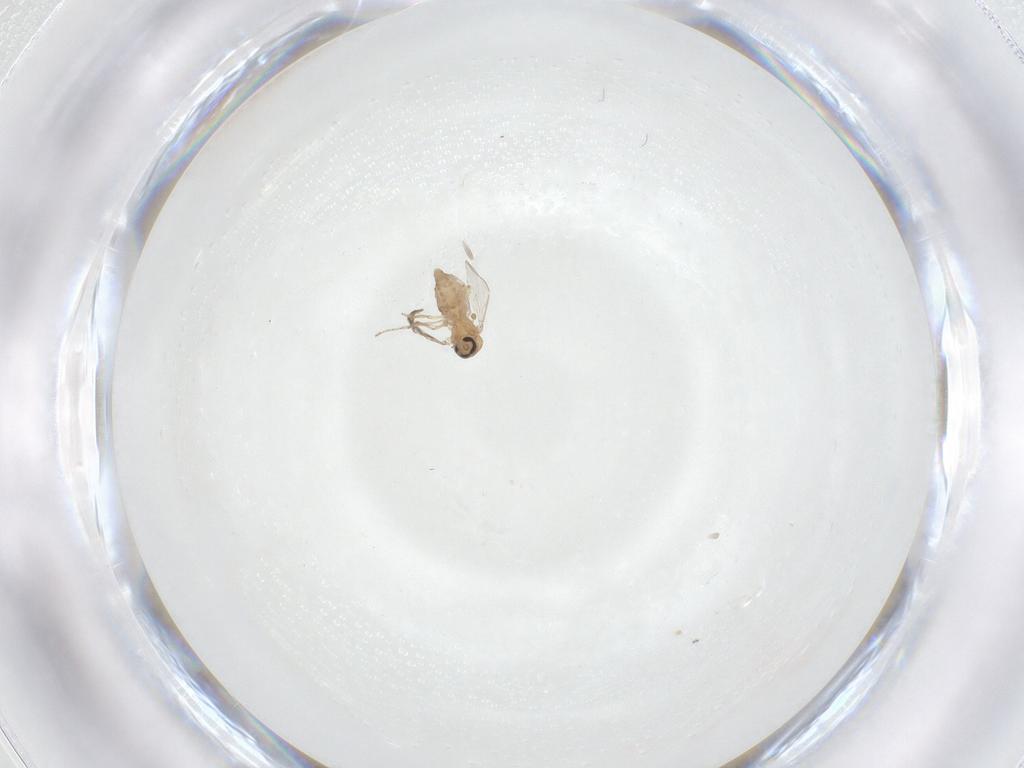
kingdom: Animalia
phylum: Arthropoda
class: Insecta
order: Diptera
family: Ceratopogonidae
